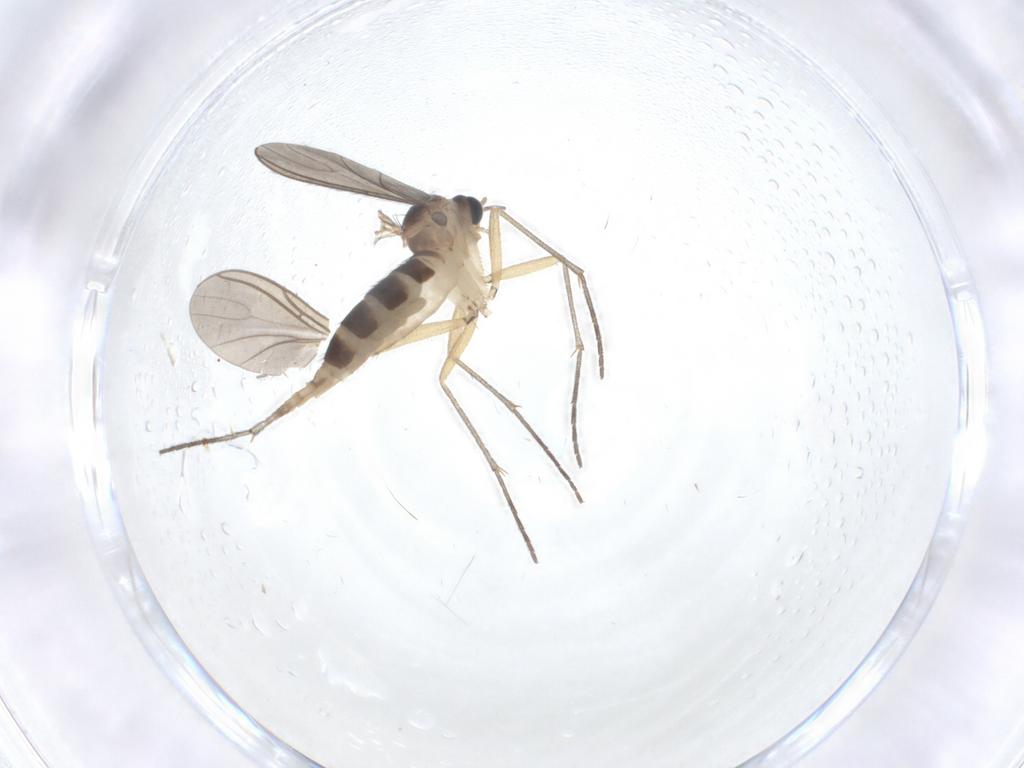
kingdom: Animalia
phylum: Arthropoda
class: Insecta
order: Diptera
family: Sciaridae
